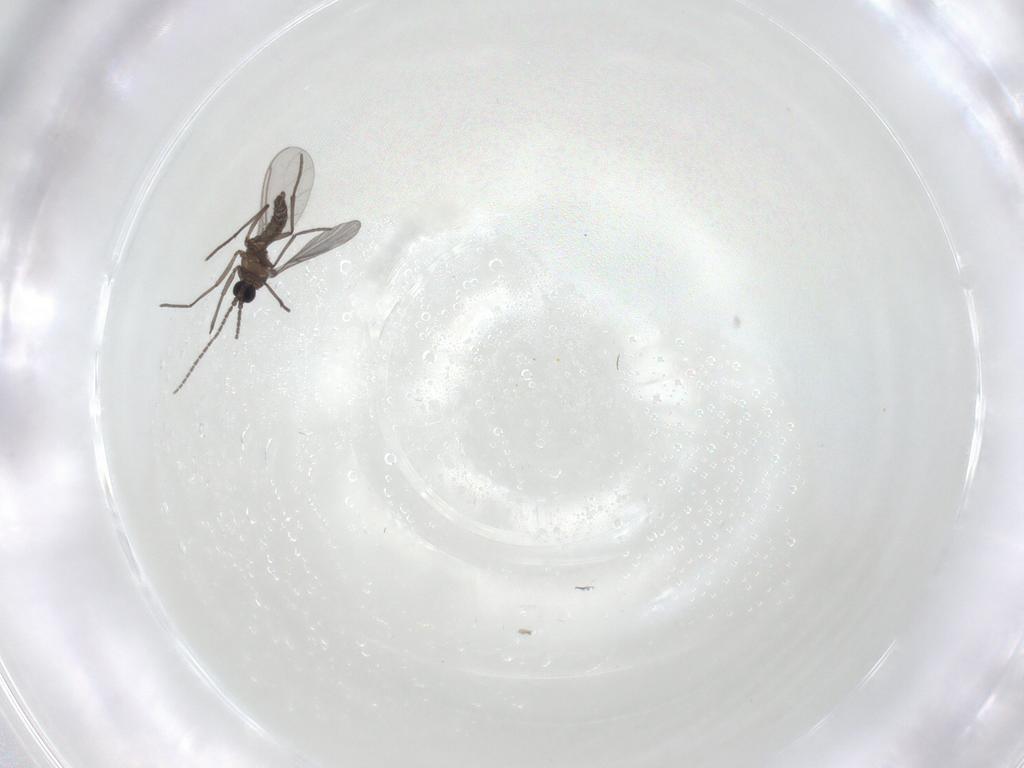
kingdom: Animalia
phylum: Arthropoda
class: Insecta
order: Diptera
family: Sciaridae
